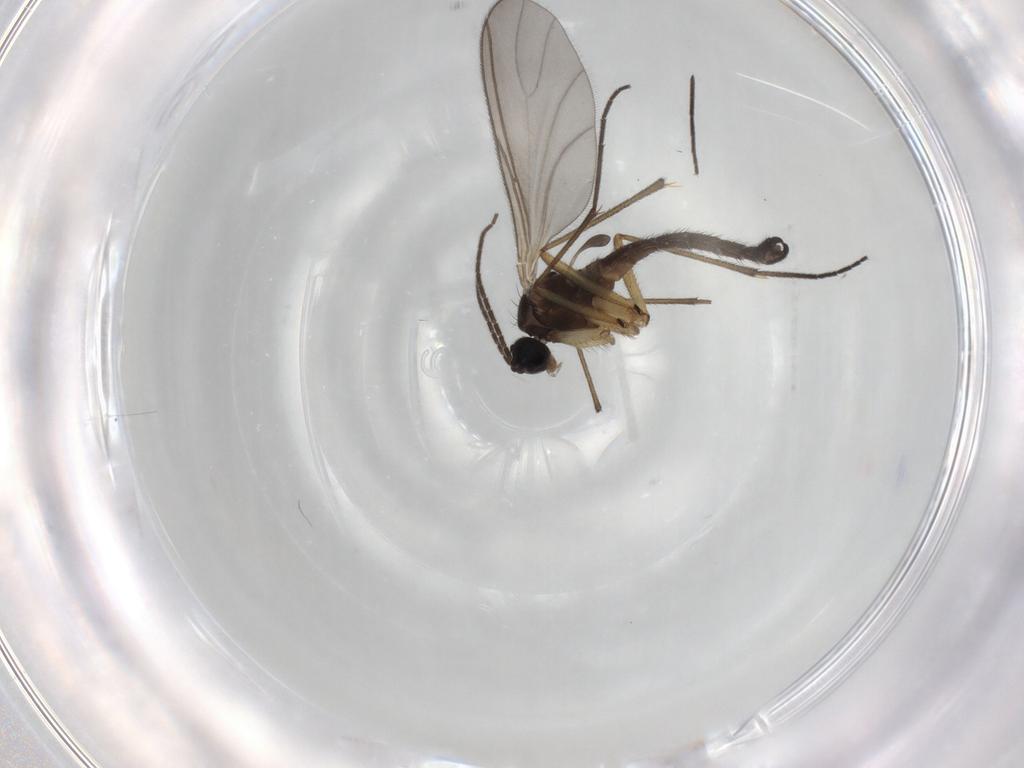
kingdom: Animalia
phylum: Arthropoda
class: Insecta
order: Diptera
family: Sciaridae
